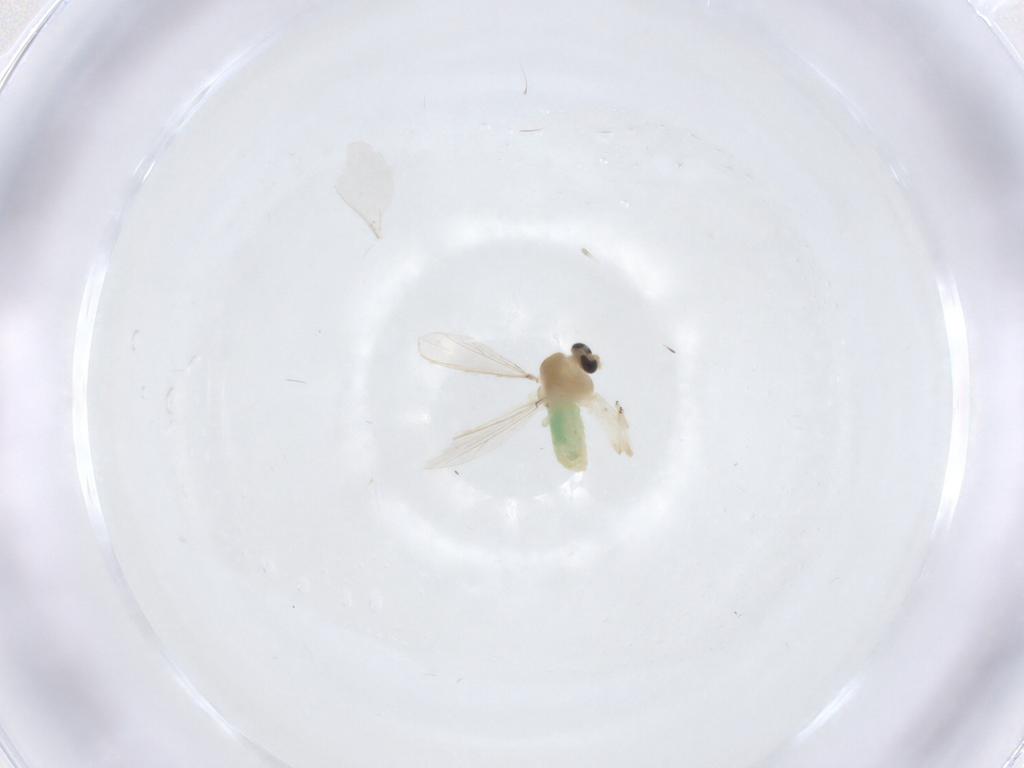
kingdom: Animalia
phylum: Arthropoda
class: Insecta
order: Diptera
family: Chironomidae
